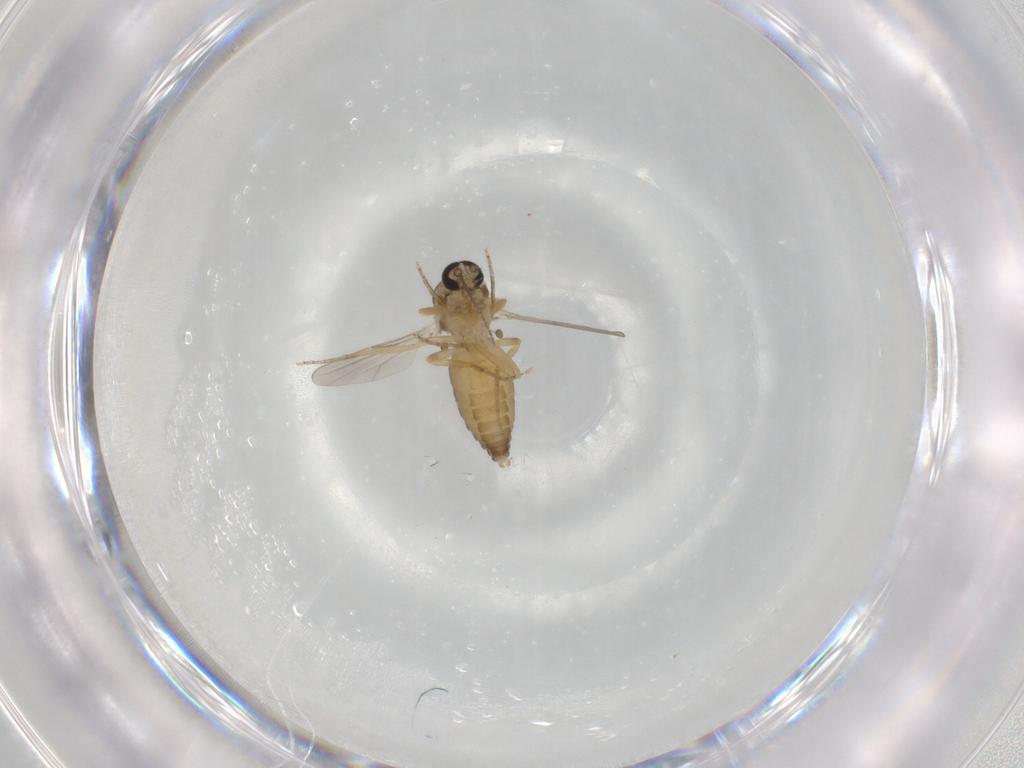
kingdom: Animalia
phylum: Arthropoda
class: Insecta
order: Diptera
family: Ceratopogonidae
